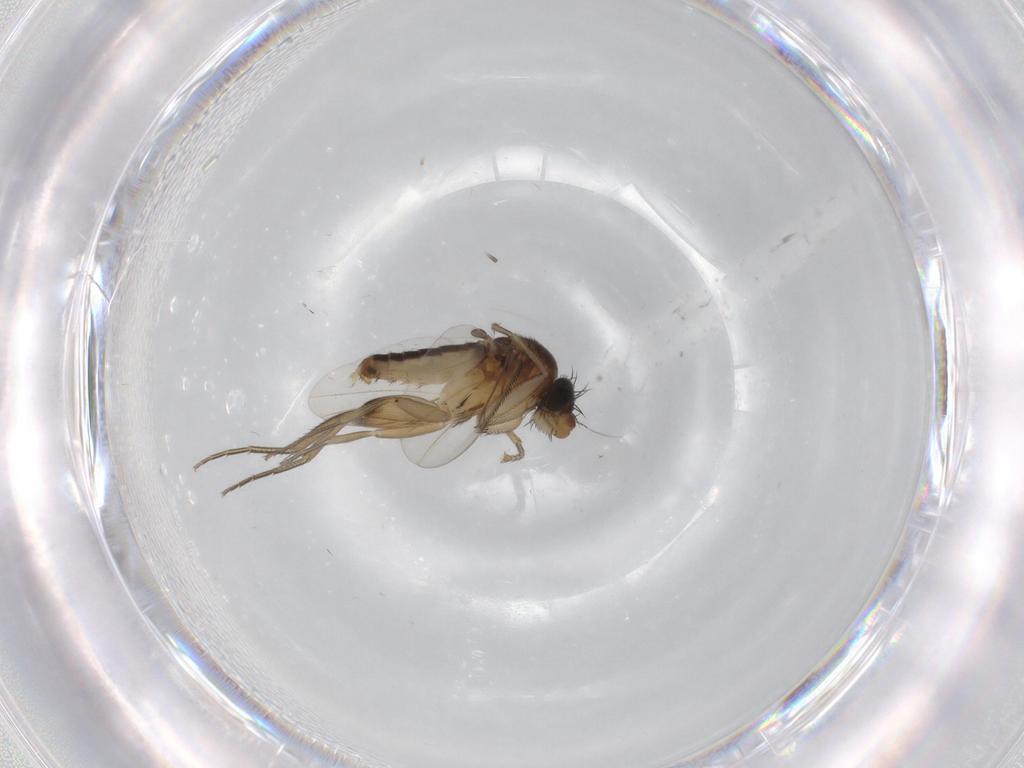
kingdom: Animalia
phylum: Arthropoda
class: Insecta
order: Diptera
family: Phoridae
